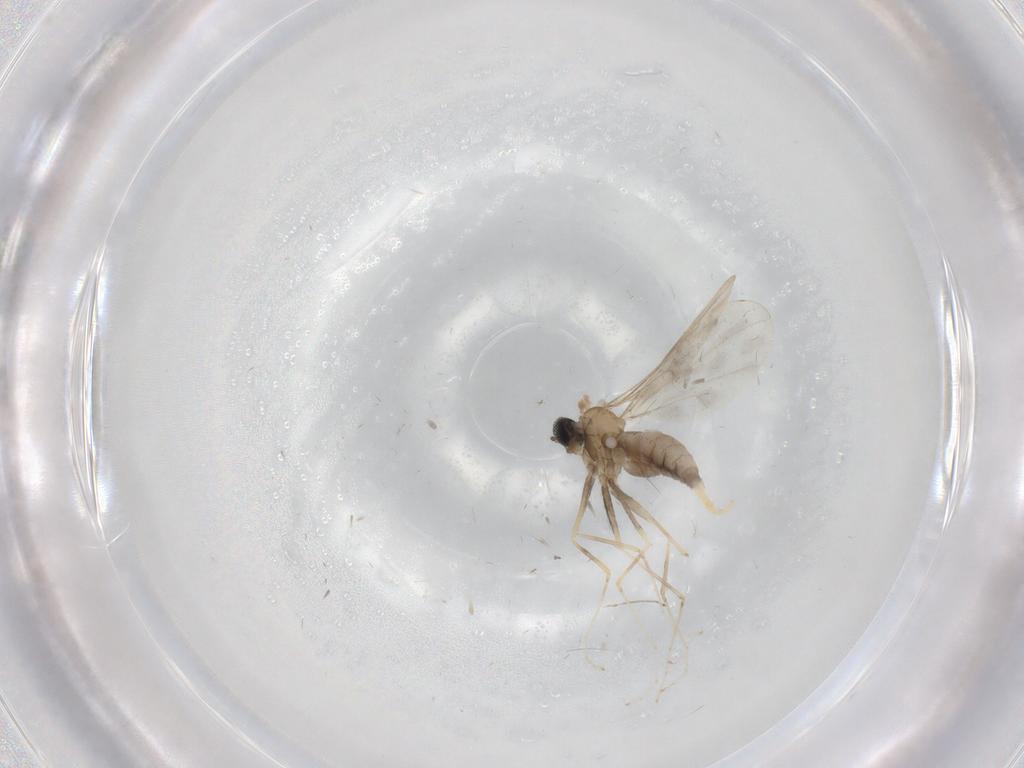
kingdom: Animalia
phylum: Arthropoda
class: Insecta
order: Diptera
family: Cecidomyiidae
